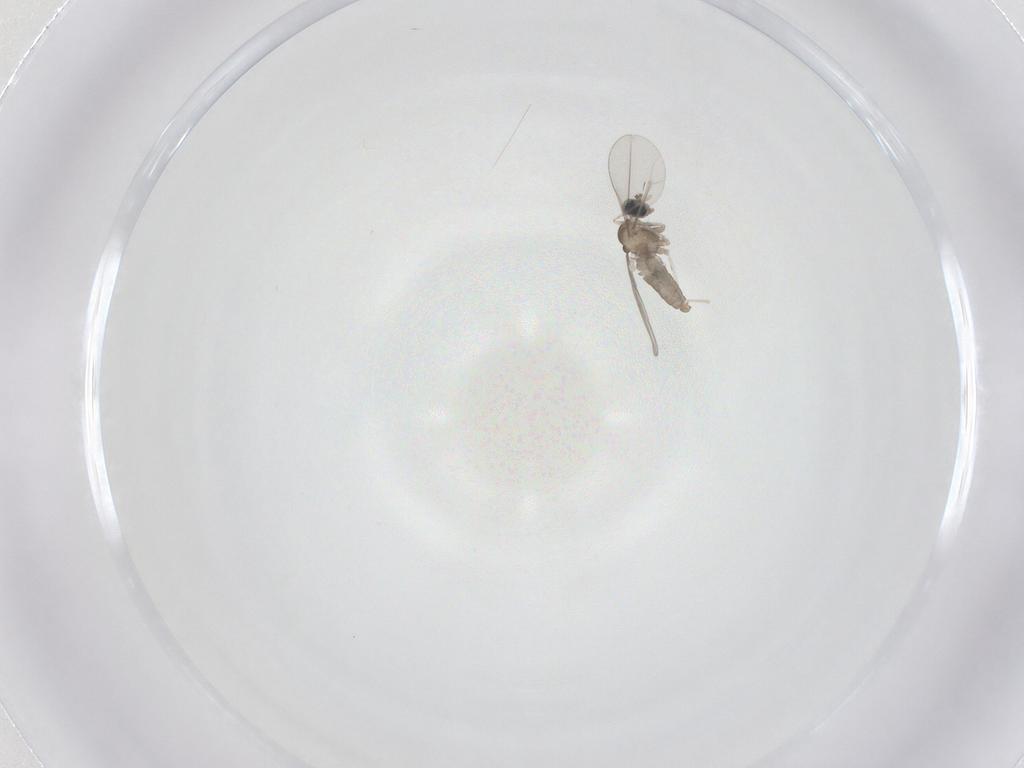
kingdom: Animalia
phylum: Arthropoda
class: Insecta
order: Diptera
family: Cecidomyiidae
